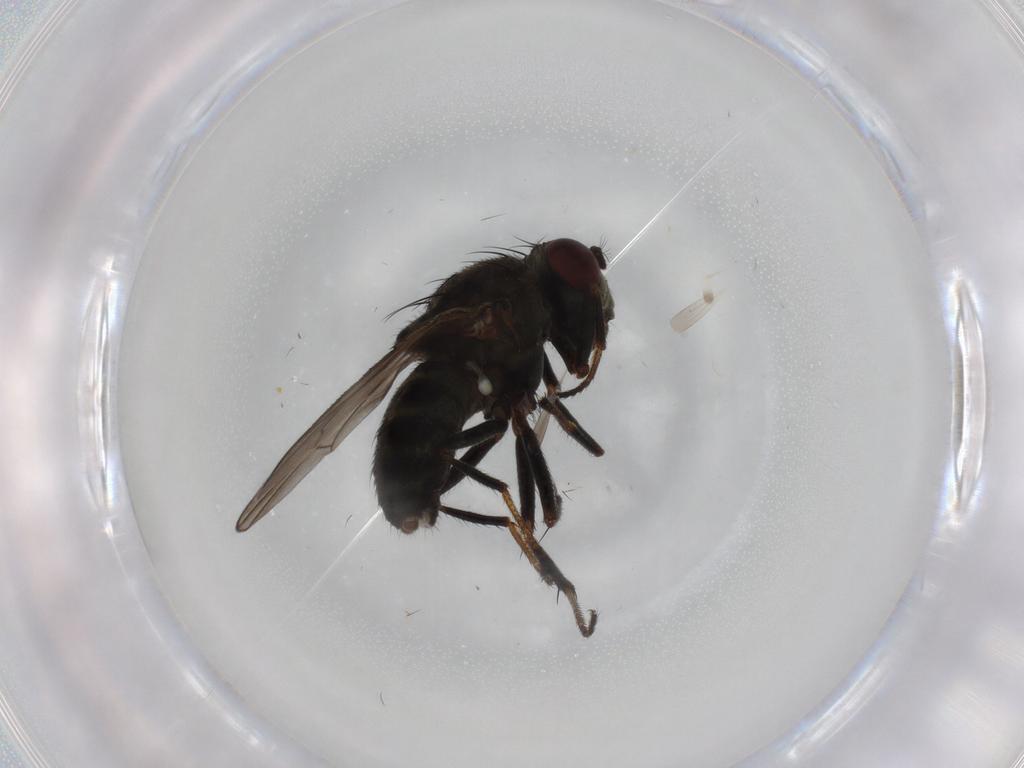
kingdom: Animalia
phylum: Arthropoda
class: Insecta
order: Diptera
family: Ephydridae
